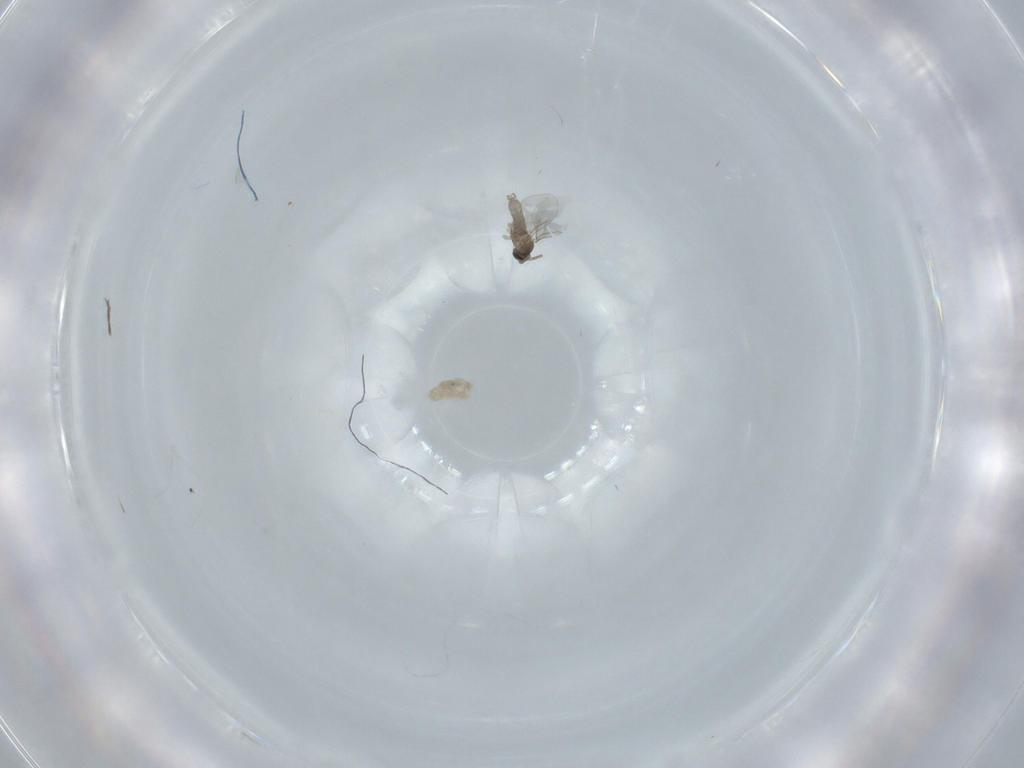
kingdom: Animalia
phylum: Arthropoda
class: Insecta
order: Diptera
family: Cecidomyiidae
